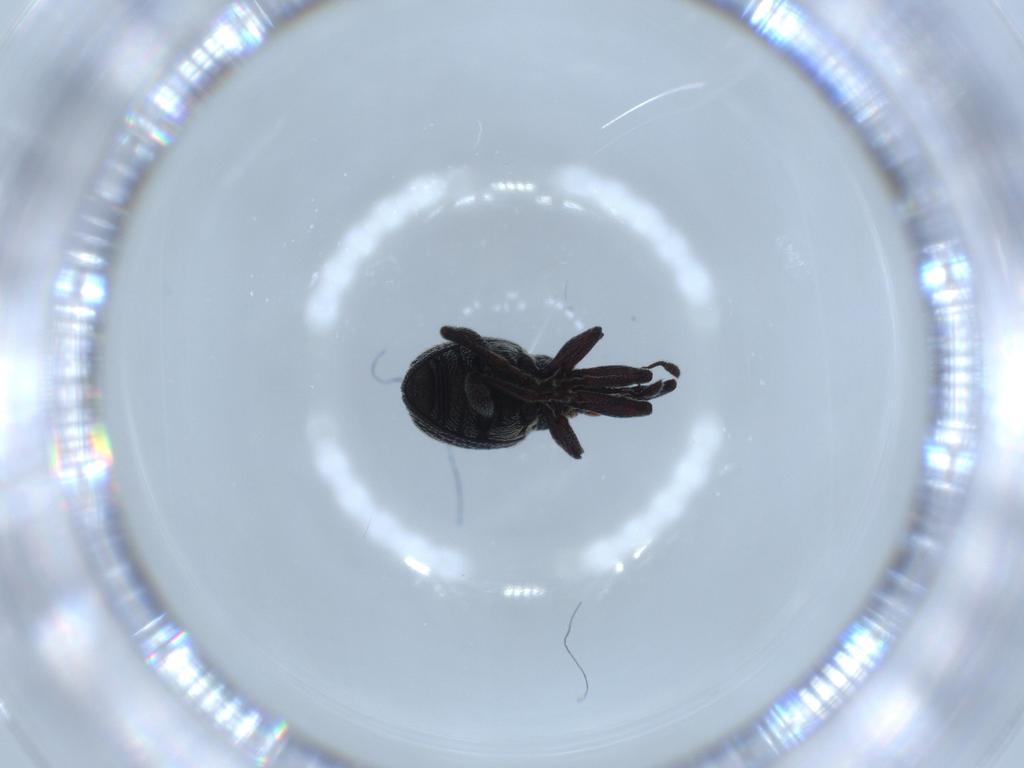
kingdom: Animalia
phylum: Arthropoda
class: Insecta
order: Coleoptera
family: Brentidae
